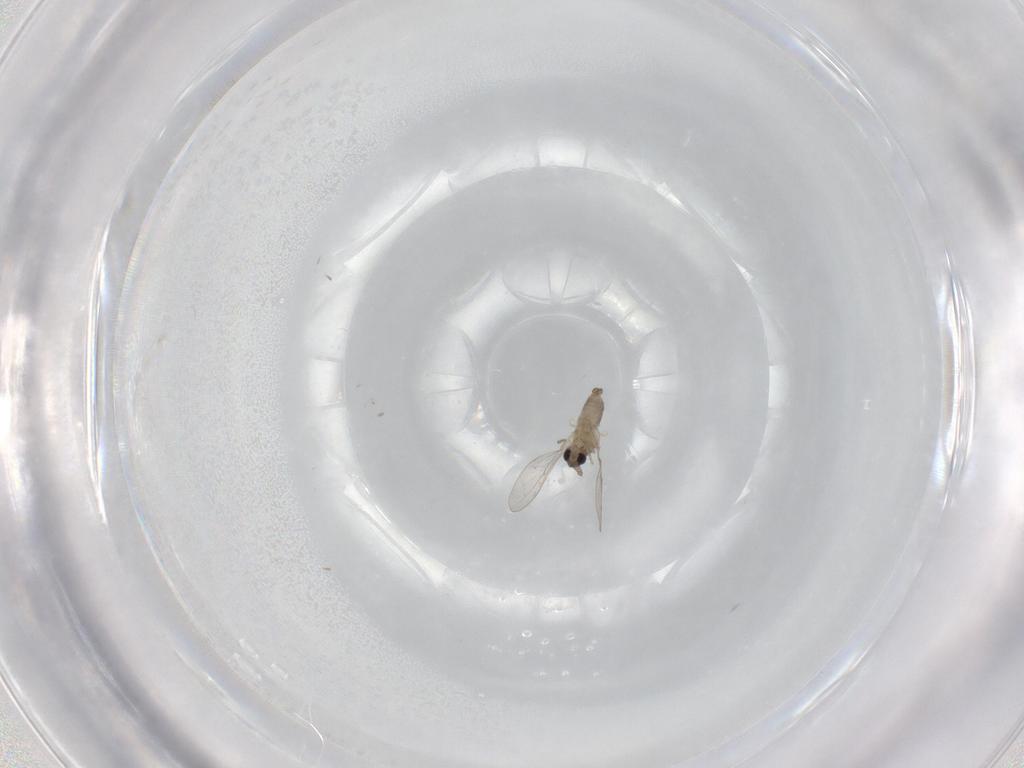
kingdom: Animalia
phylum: Arthropoda
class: Insecta
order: Diptera
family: Cecidomyiidae
